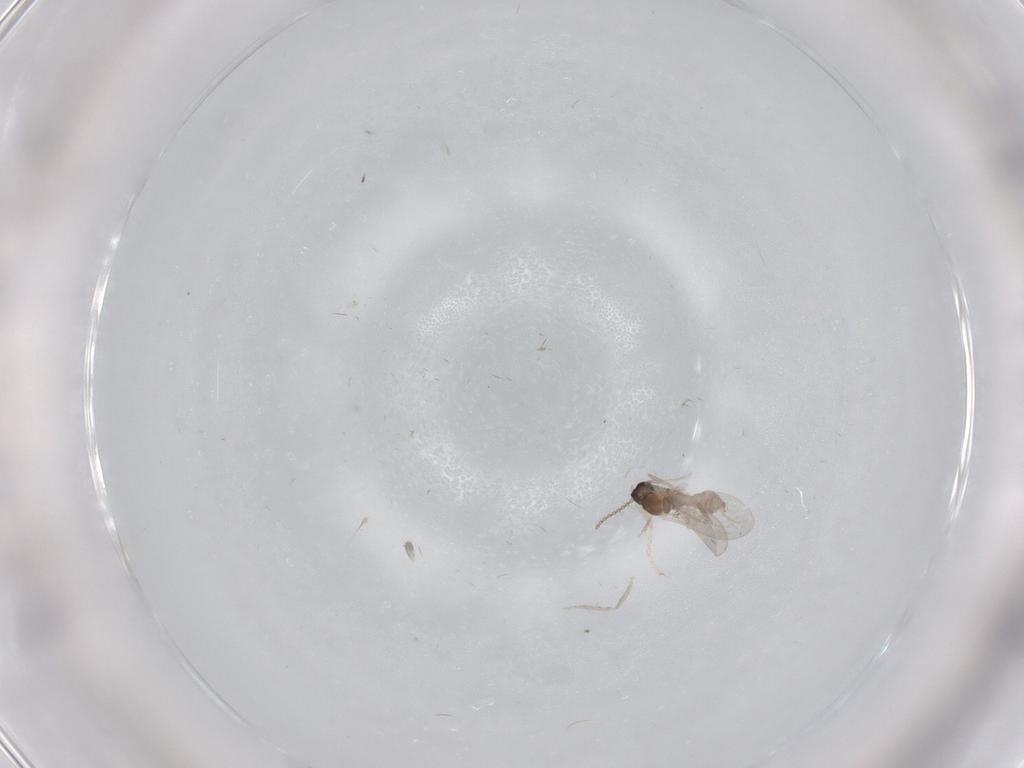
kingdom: Animalia
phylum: Arthropoda
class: Insecta
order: Diptera
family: Cecidomyiidae
